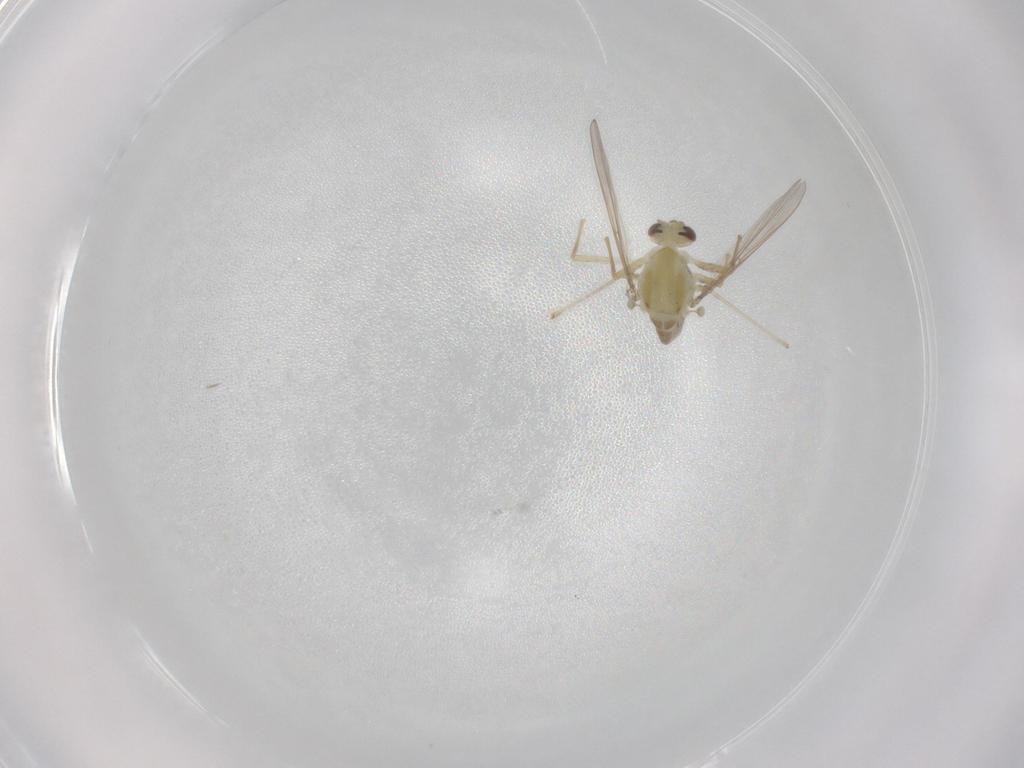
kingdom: Animalia
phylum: Arthropoda
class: Insecta
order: Diptera
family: Chironomidae
